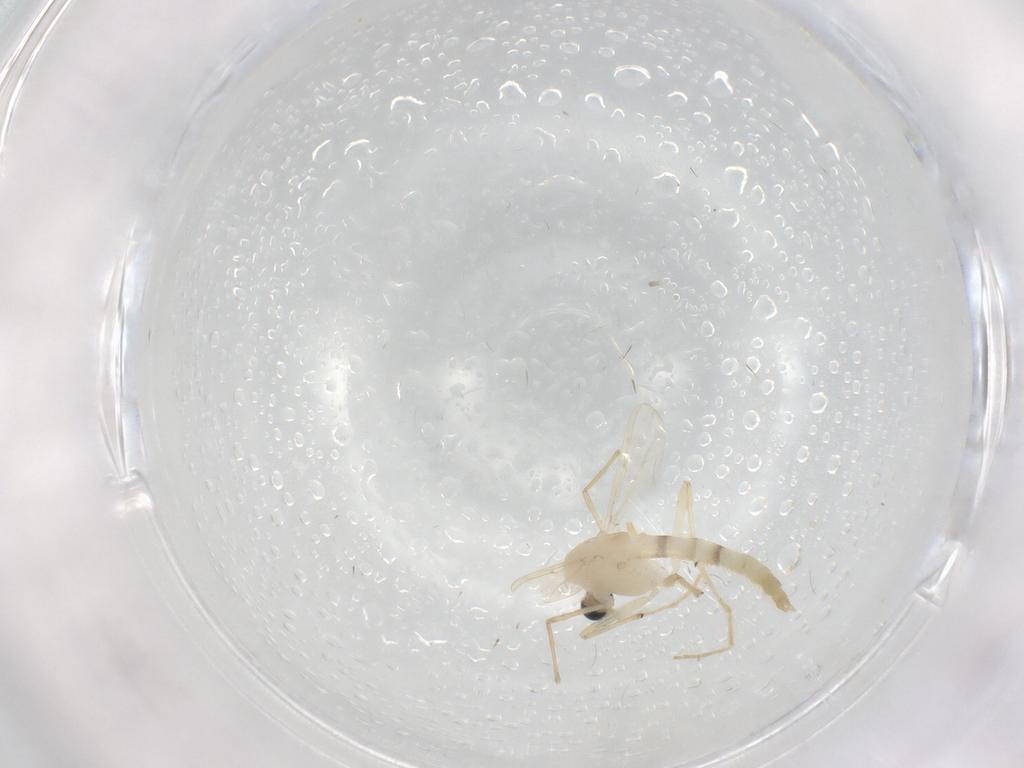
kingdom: Animalia
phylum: Arthropoda
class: Insecta
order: Diptera
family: Chironomidae
